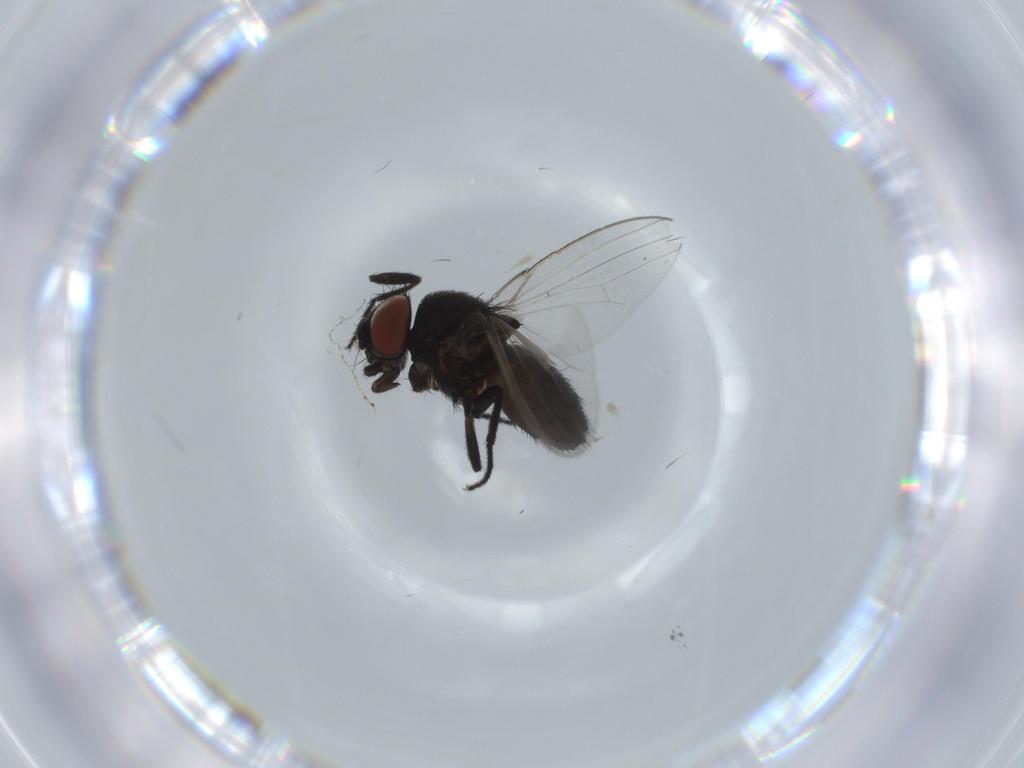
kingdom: Animalia
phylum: Arthropoda
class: Insecta
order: Diptera
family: Milichiidae
